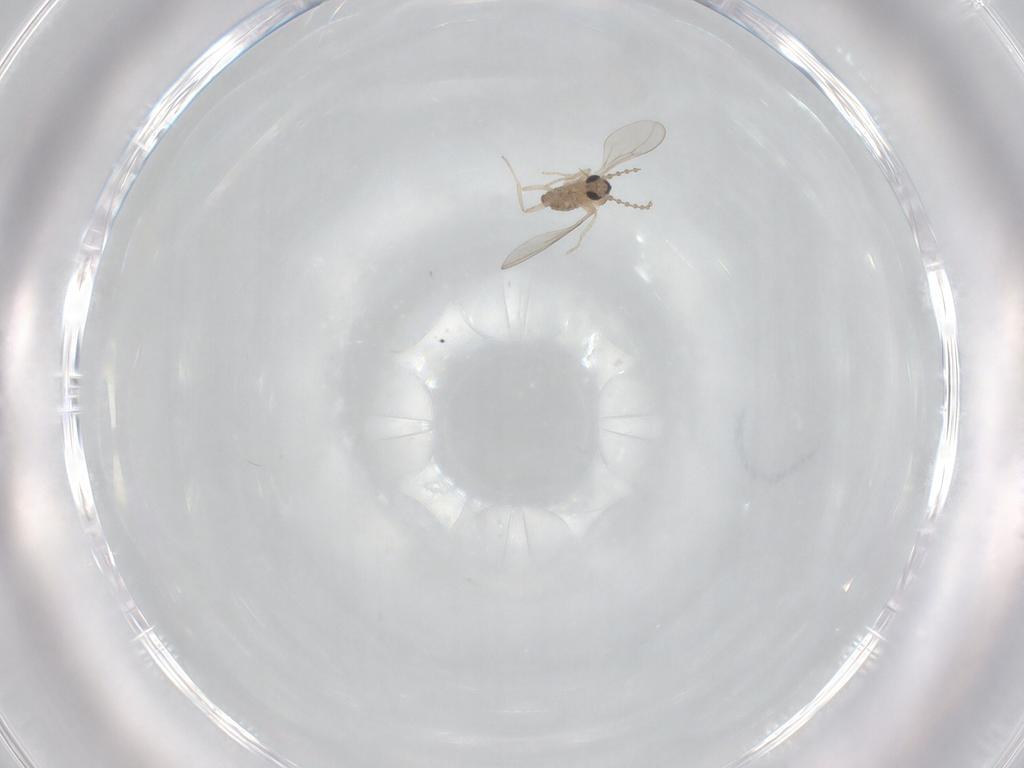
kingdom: Animalia
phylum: Arthropoda
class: Insecta
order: Diptera
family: Cecidomyiidae
